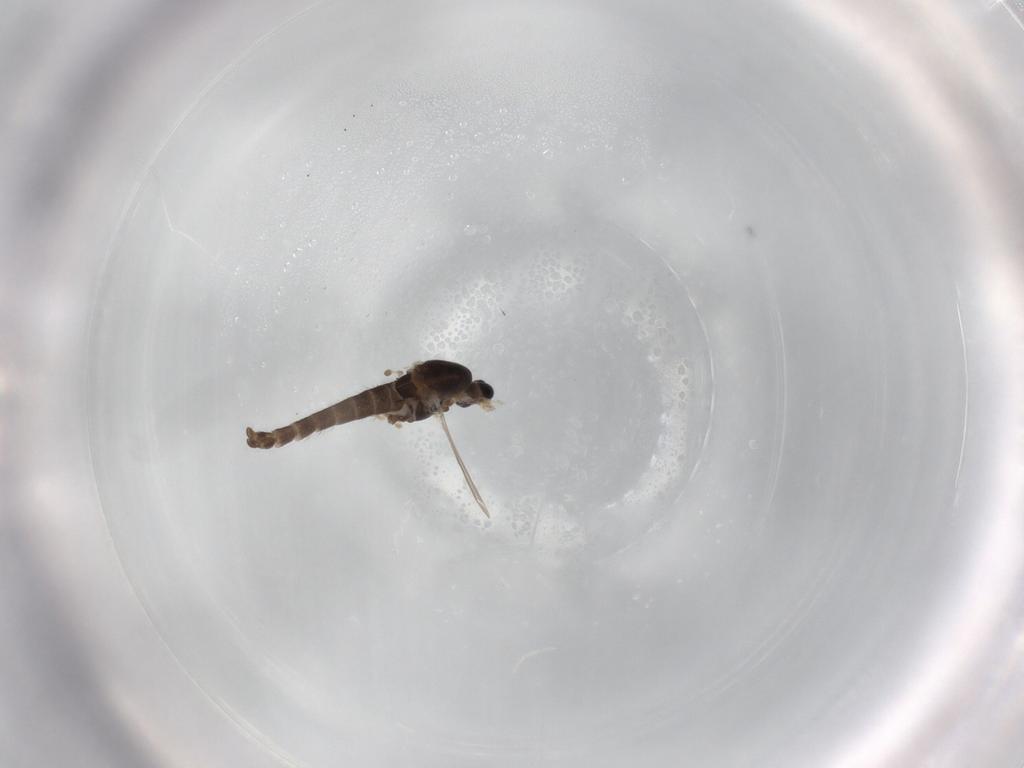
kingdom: Animalia
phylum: Arthropoda
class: Insecta
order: Diptera
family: Chironomidae
